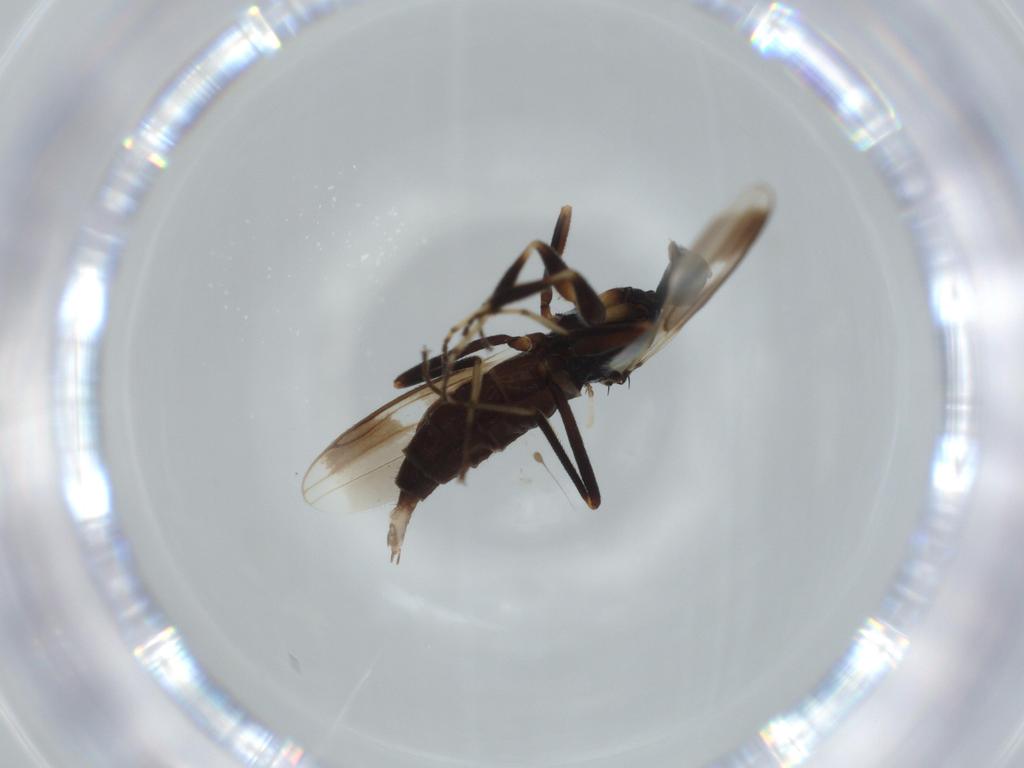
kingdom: Animalia
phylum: Arthropoda
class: Insecta
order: Diptera
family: Hybotidae
